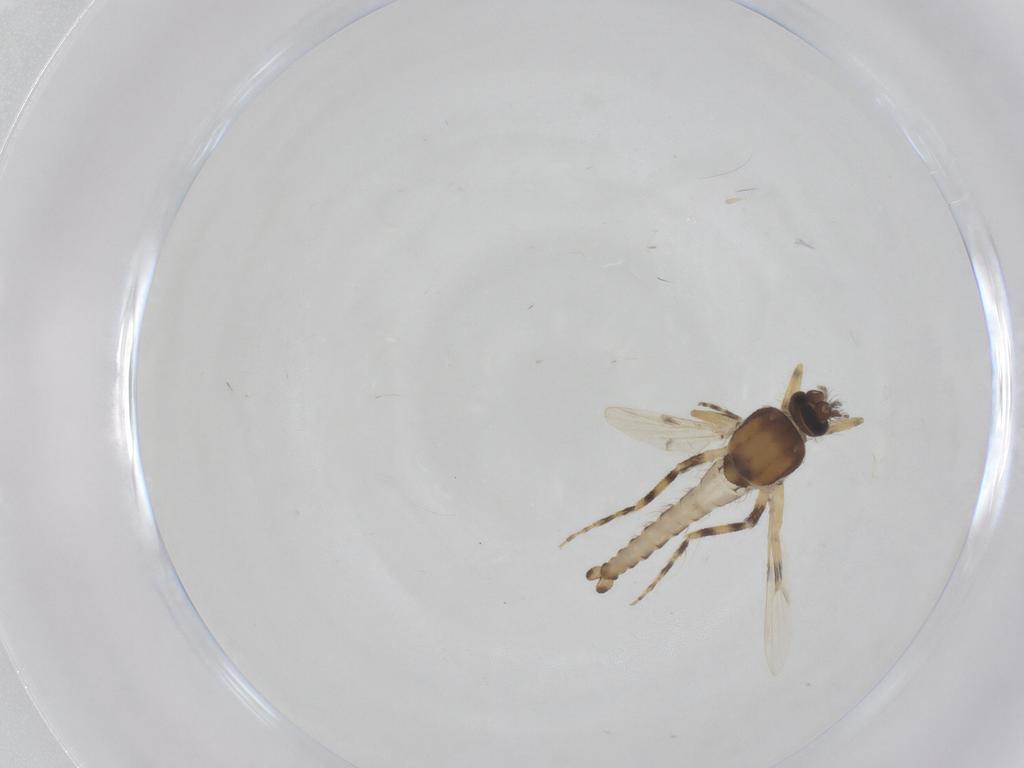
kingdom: Animalia
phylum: Arthropoda
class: Insecta
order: Diptera
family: Ceratopogonidae
